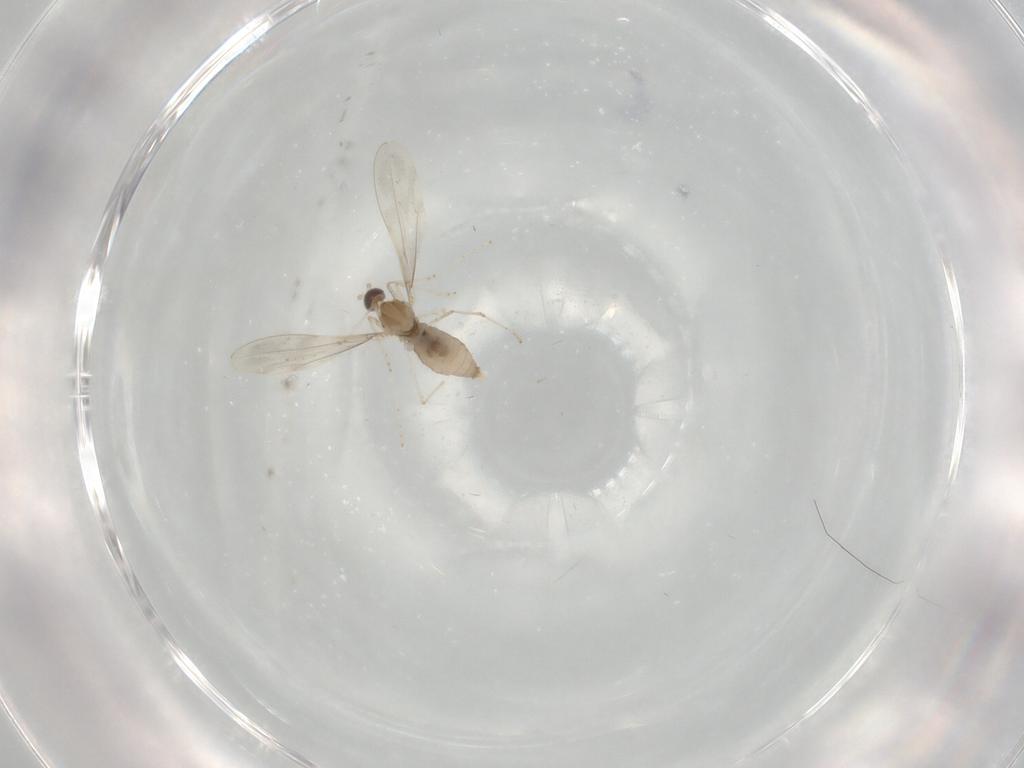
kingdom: Animalia
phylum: Arthropoda
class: Insecta
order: Diptera
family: Cecidomyiidae
